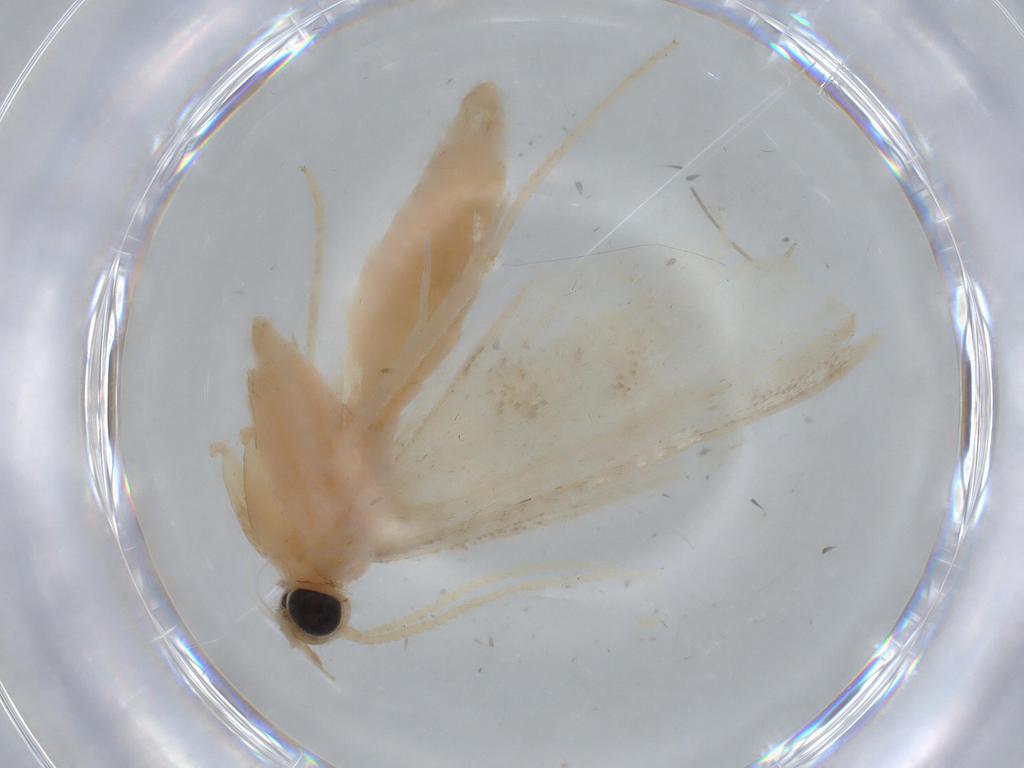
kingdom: Animalia
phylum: Arthropoda
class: Insecta
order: Lepidoptera
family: Crambidae
